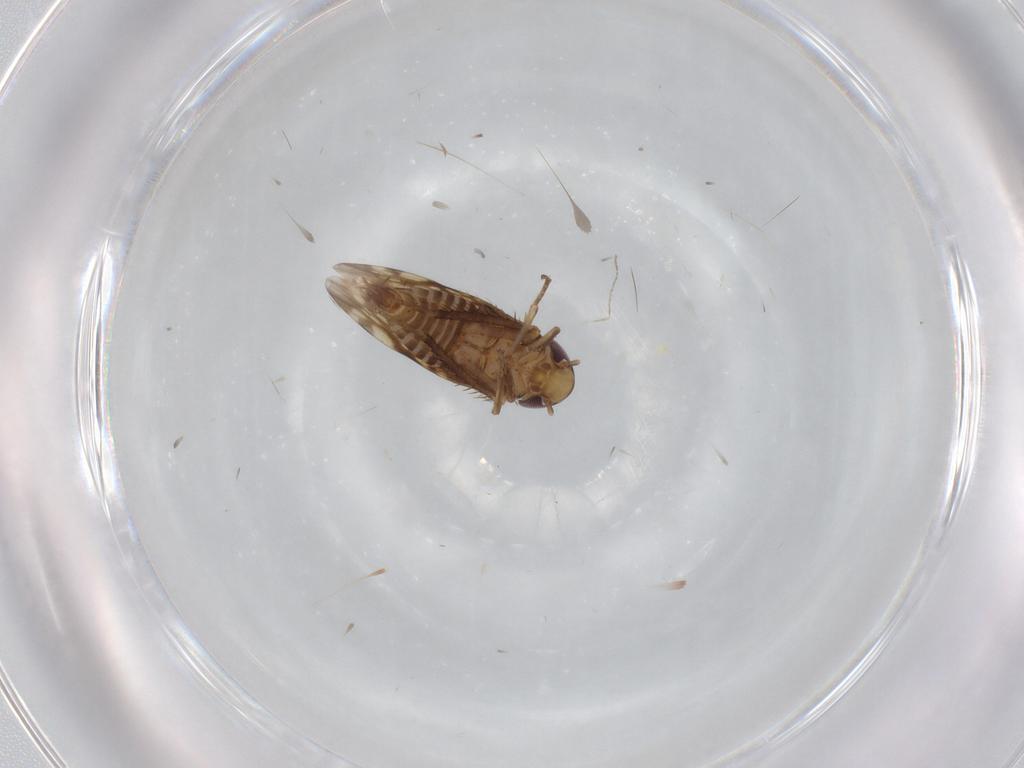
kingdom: Animalia
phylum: Arthropoda
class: Insecta
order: Hemiptera
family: Cicadellidae
